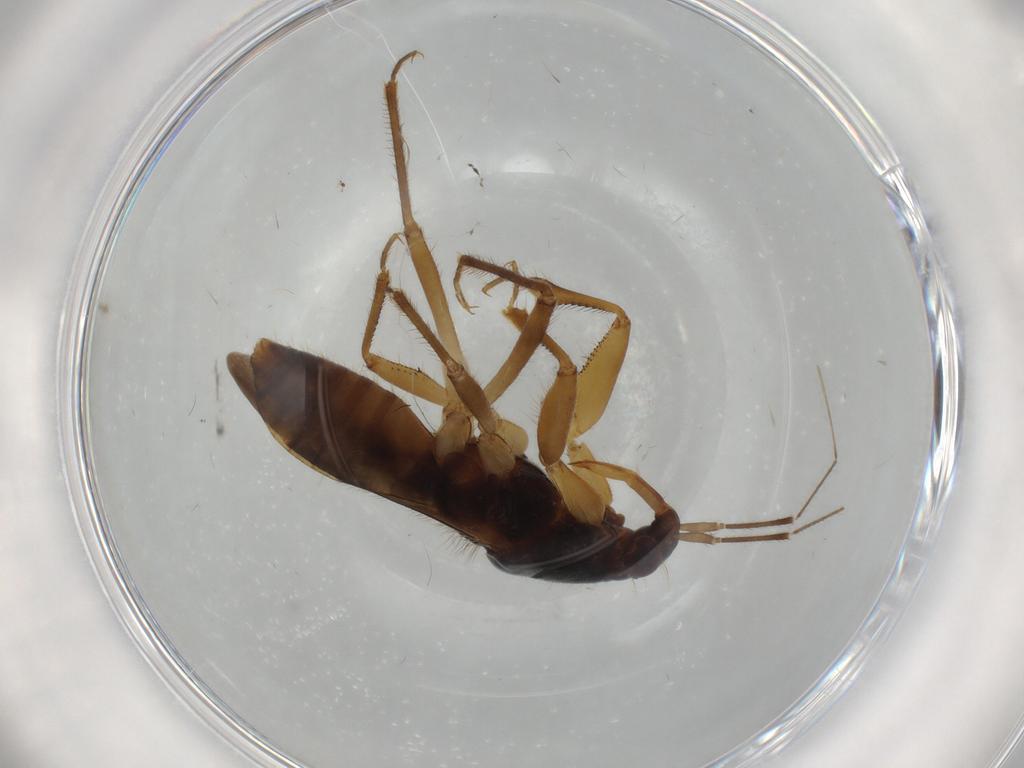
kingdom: Animalia
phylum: Arthropoda
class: Insecta
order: Hemiptera
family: Nabidae
